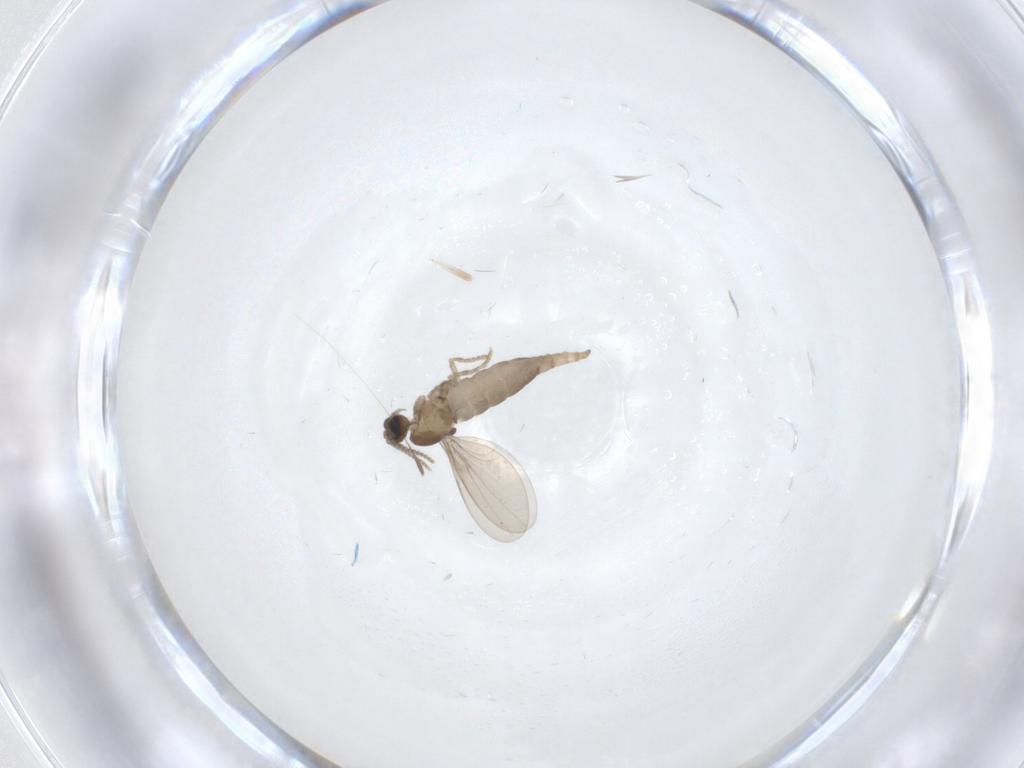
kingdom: Animalia
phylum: Arthropoda
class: Insecta
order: Diptera
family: Cecidomyiidae
